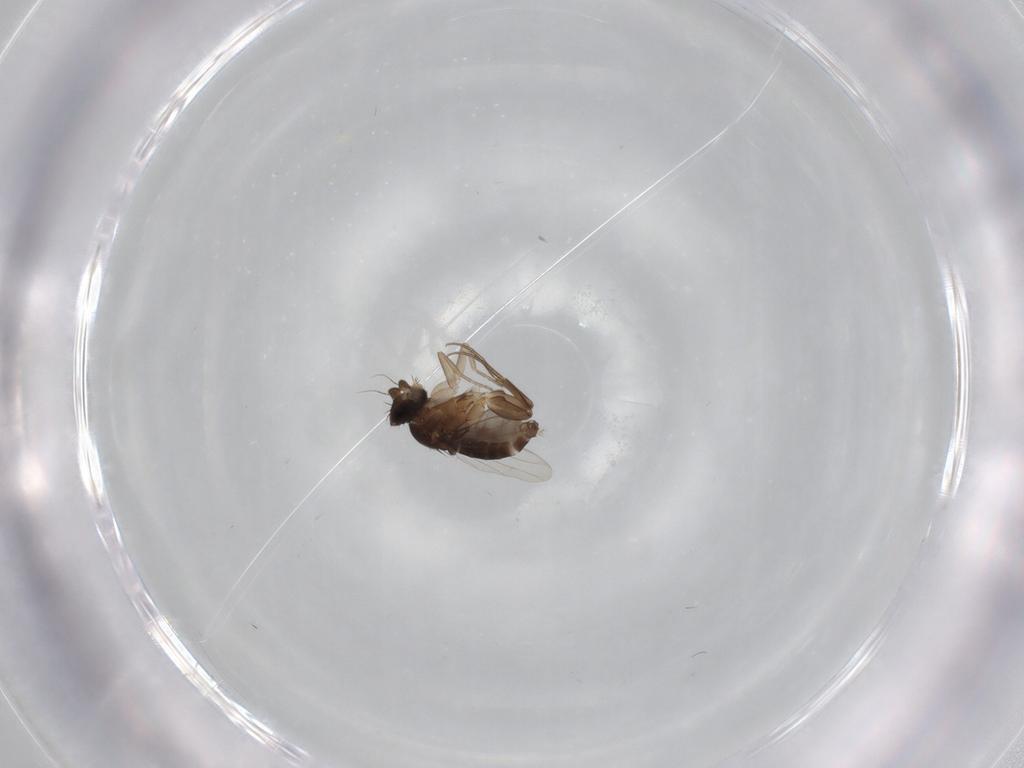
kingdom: Animalia
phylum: Arthropoda
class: Insecta
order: Diptera
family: Phoridae
